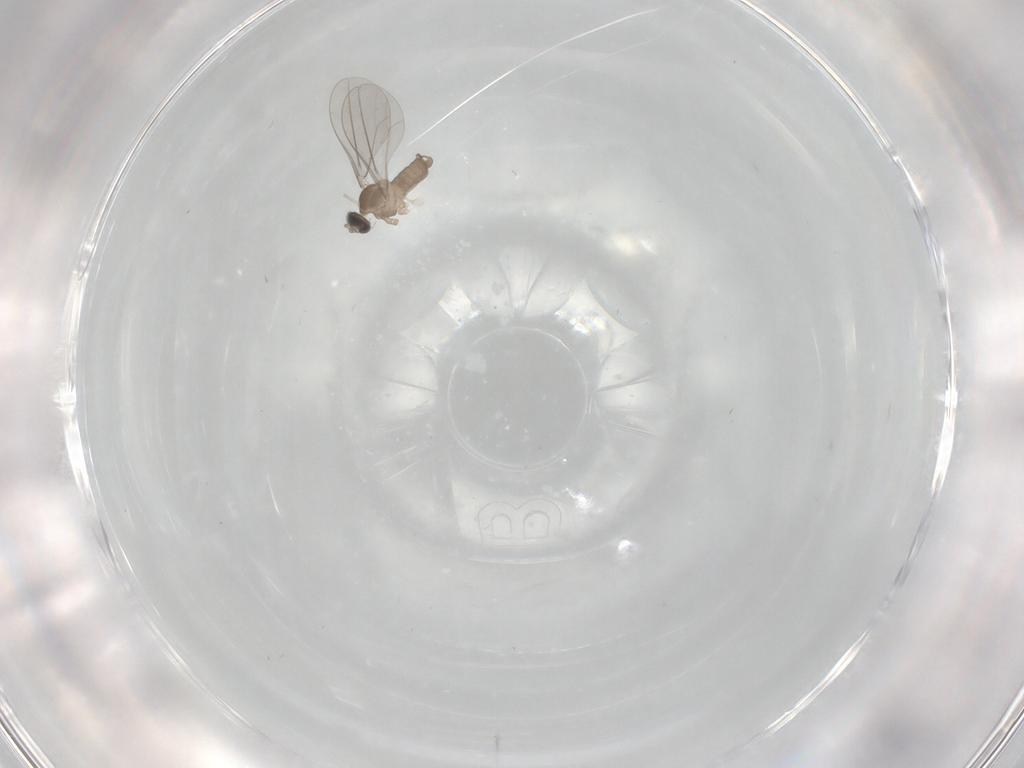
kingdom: Animalia
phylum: Arthropoda
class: Insecta
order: Diptera
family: Cecidomyiidae
